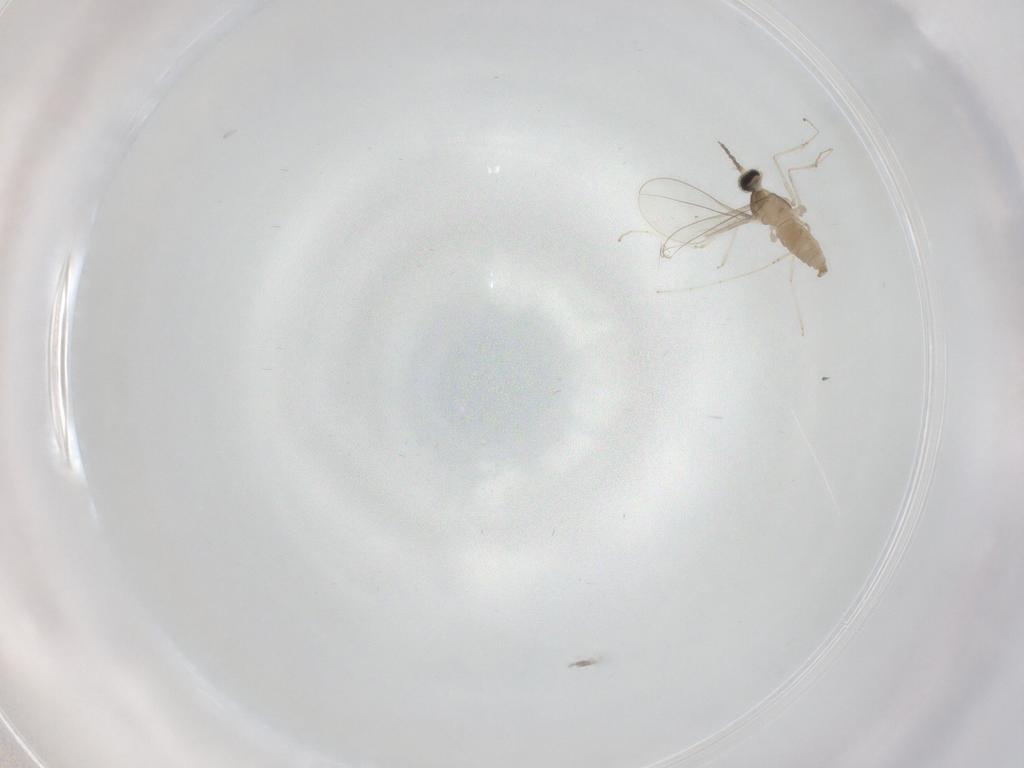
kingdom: Animalia
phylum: Arthropoda
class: Insecta
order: Diptera
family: Cecidomyiidae
